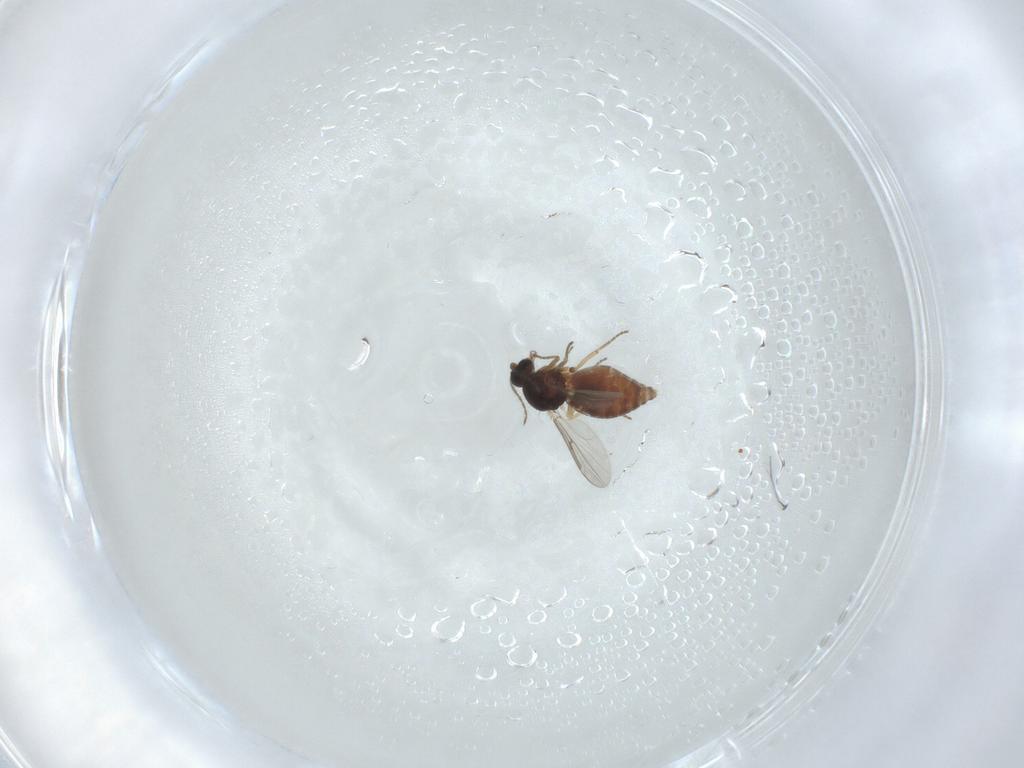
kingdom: Animalia
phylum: Arthropoda
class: Insecta
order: Diptera
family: Ceratopogonidae
